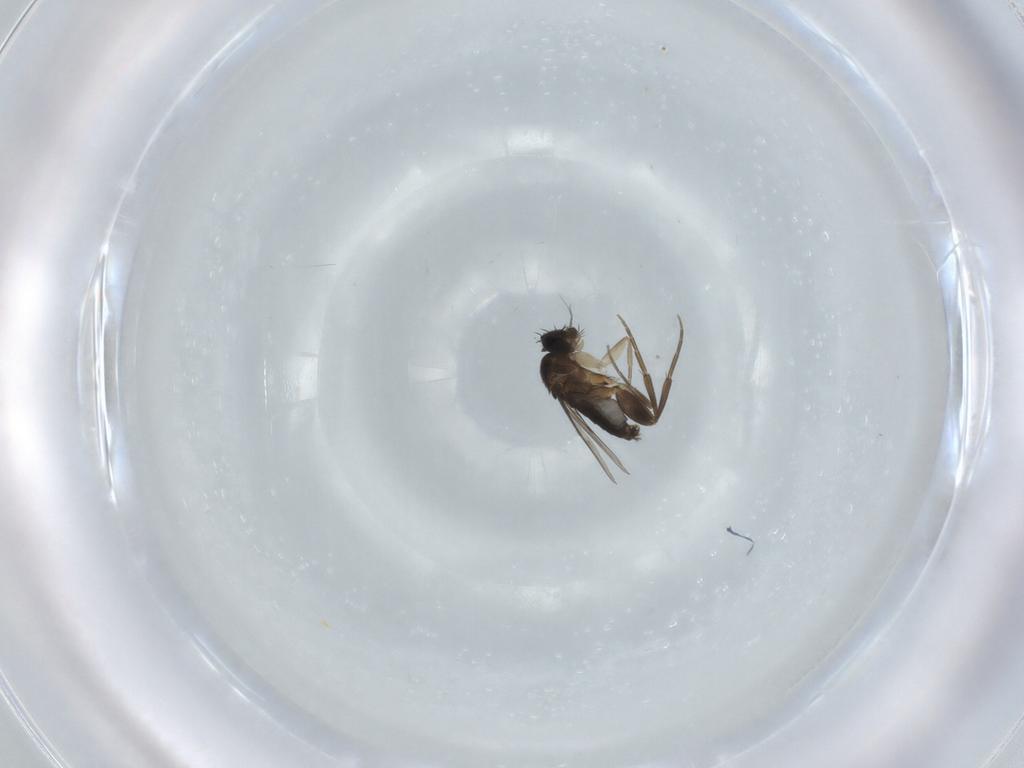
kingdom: Animalia
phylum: Arthropoda
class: Insecta
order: Diptera
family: Phoridae
